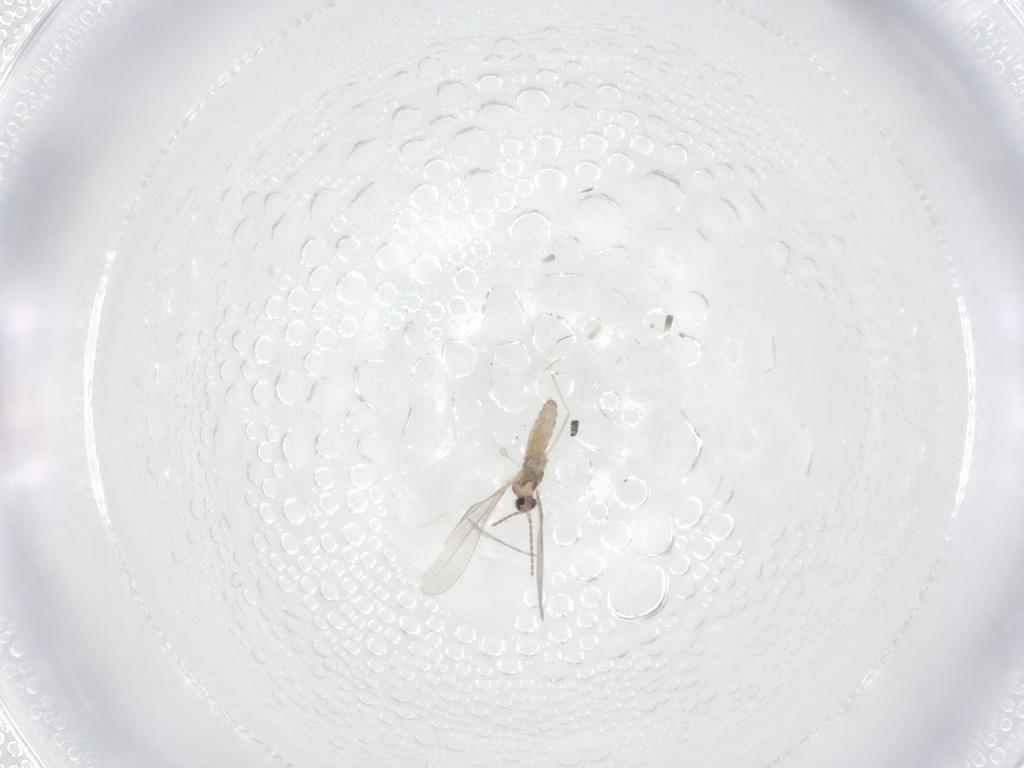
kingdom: Animalia
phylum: Arthropoda
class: Insecta
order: Diptera
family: Cecidomyiidae
